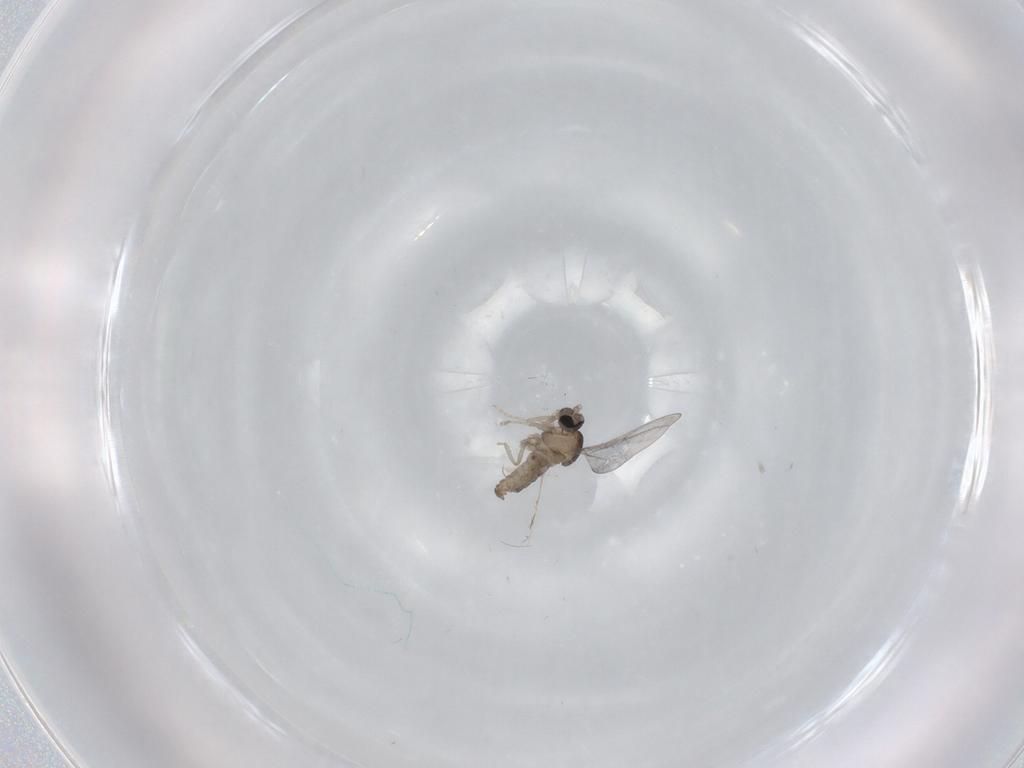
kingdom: Animalia
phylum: Arthropoda
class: Insecta
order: Diptera
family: Cecidomyiidae
